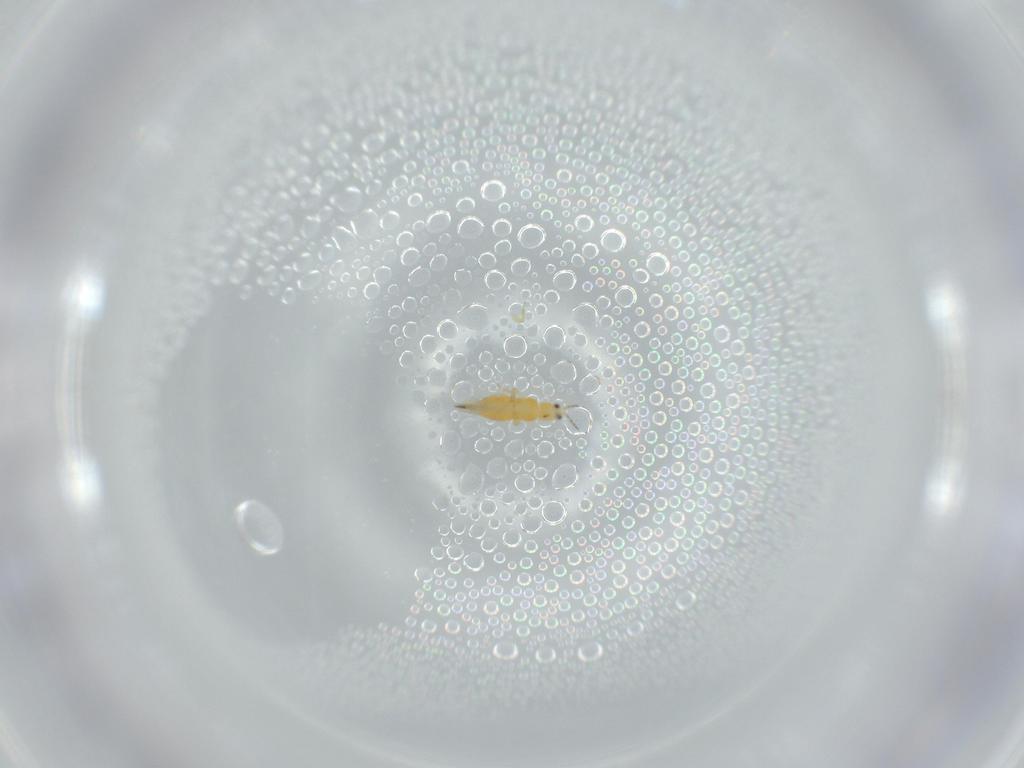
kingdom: Animalia
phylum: Arthropoda
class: Insecta
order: Thysanoptera
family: Thripidae
